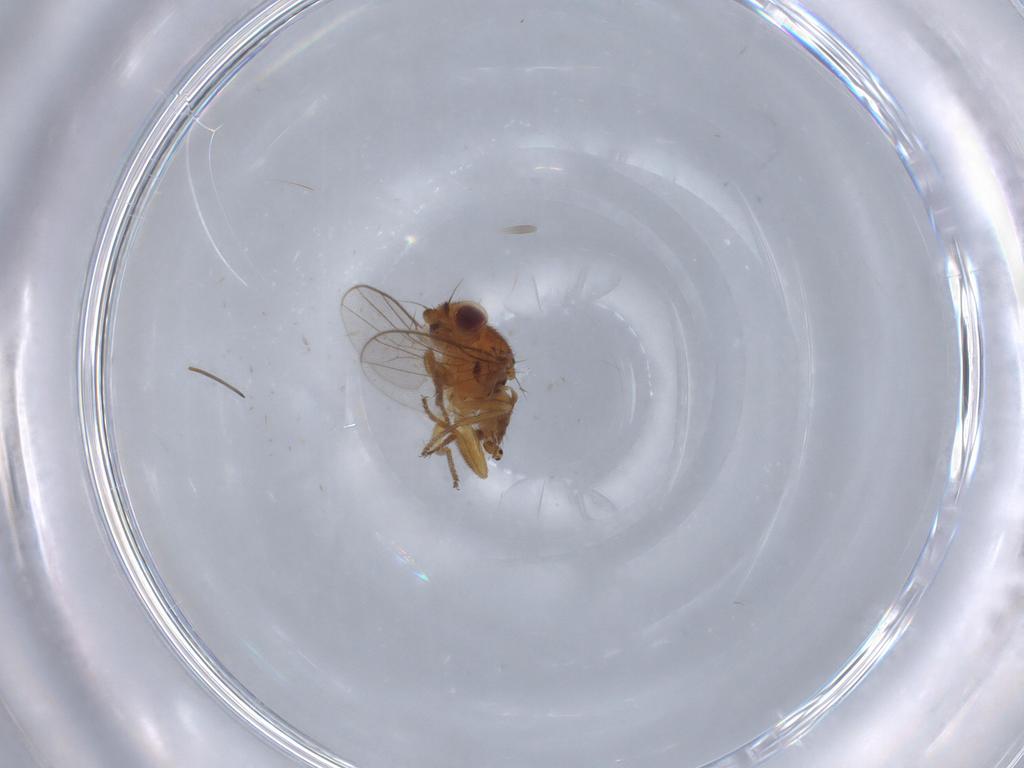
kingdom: Animalia
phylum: Arthropoda
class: Insecta
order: Diptera
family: Chloropidae
